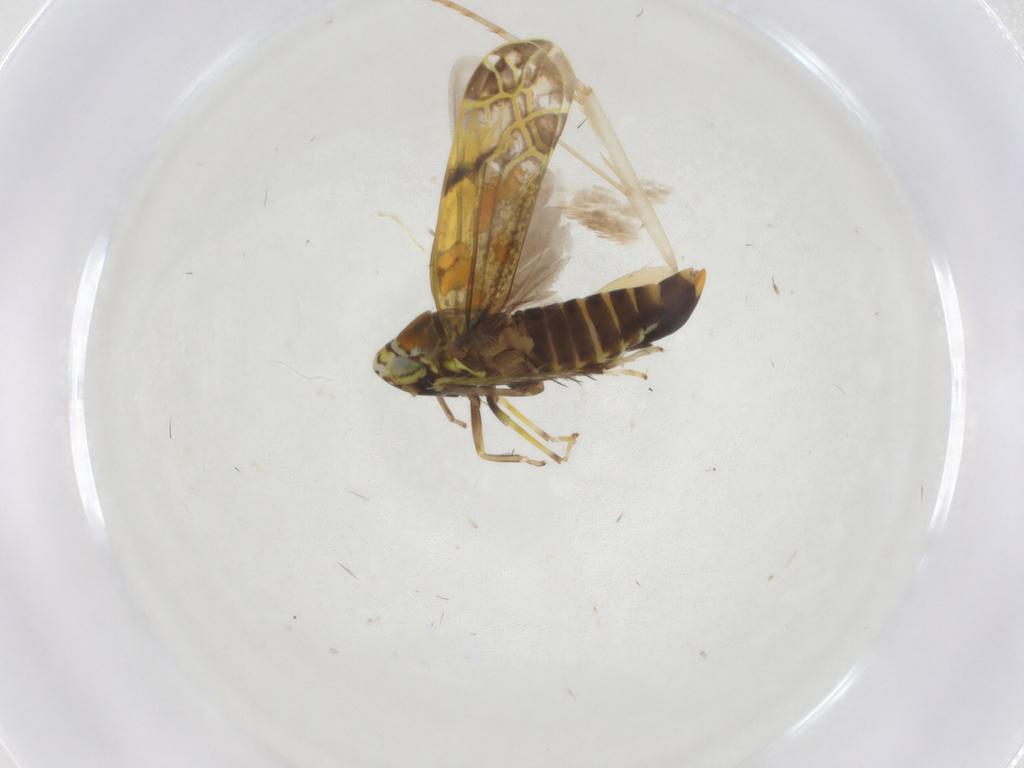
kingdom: Animalia
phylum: Arthropoda
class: Insecta
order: Hemiptera
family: Cicadellidae
